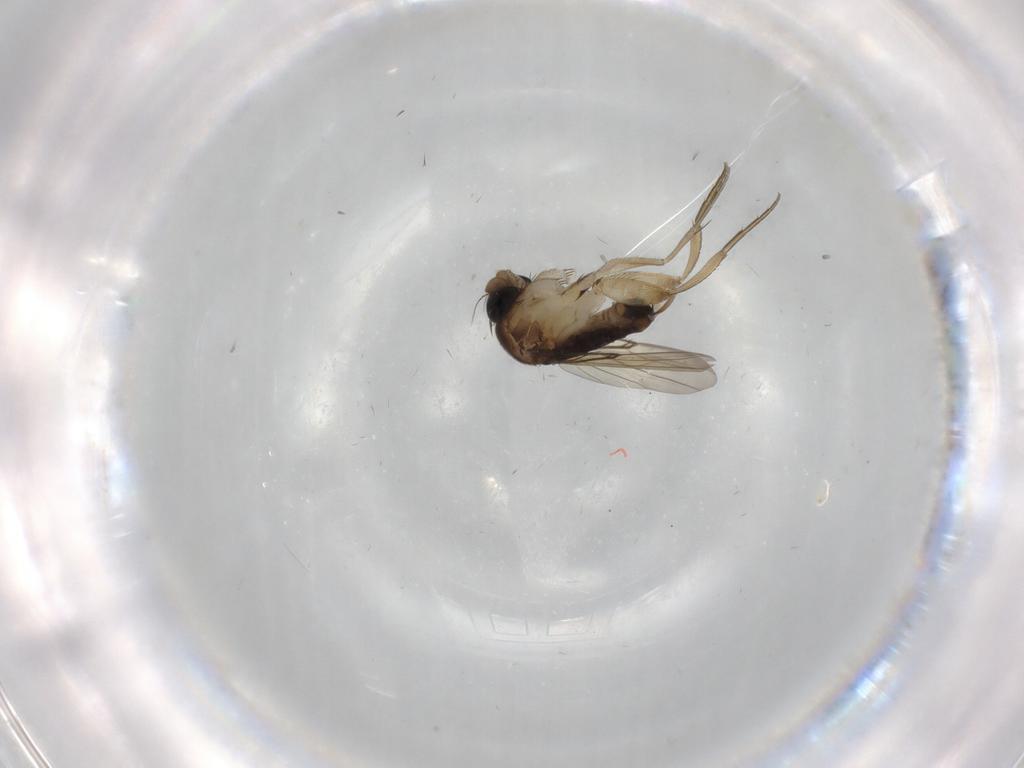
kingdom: Animalia
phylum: Arthropoda
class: Insecta
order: Diptera
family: Phoridae
